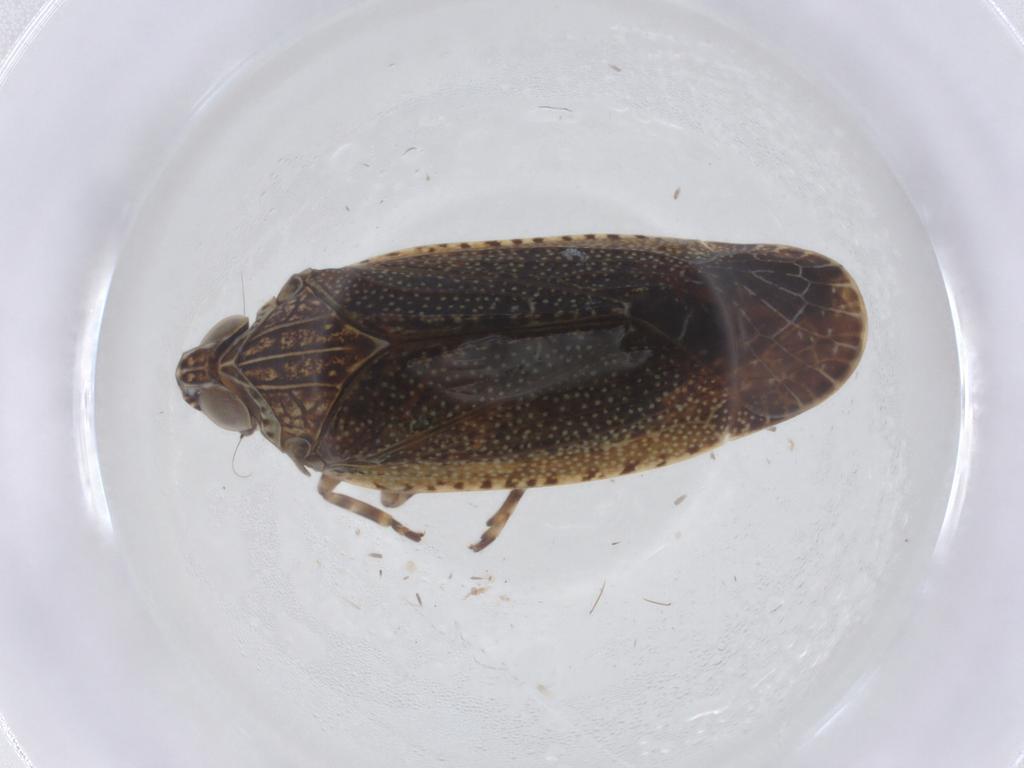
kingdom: Animalia
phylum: Arthropoda
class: Insecta
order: Hemiptera
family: Achilidae
